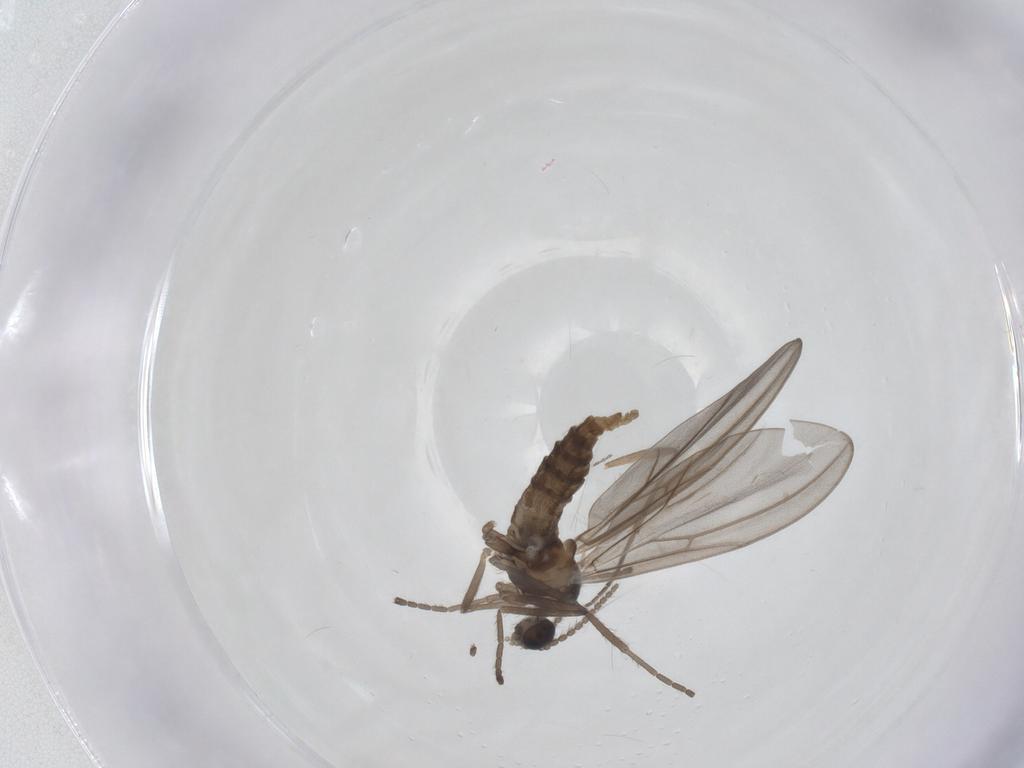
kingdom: Animalia
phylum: Arthropoda
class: Insecta
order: Diptera
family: Cecidomyiidae
